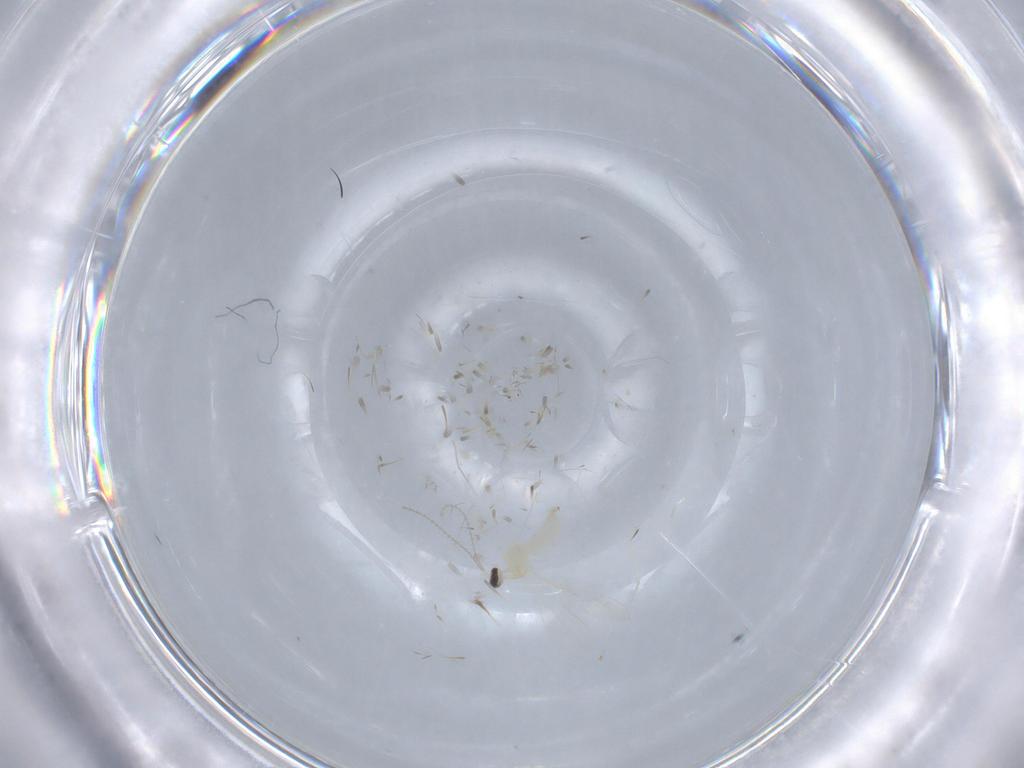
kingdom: Animalia
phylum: Arthropoda
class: Insecta
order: Diptera
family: Cecidomyiidae
